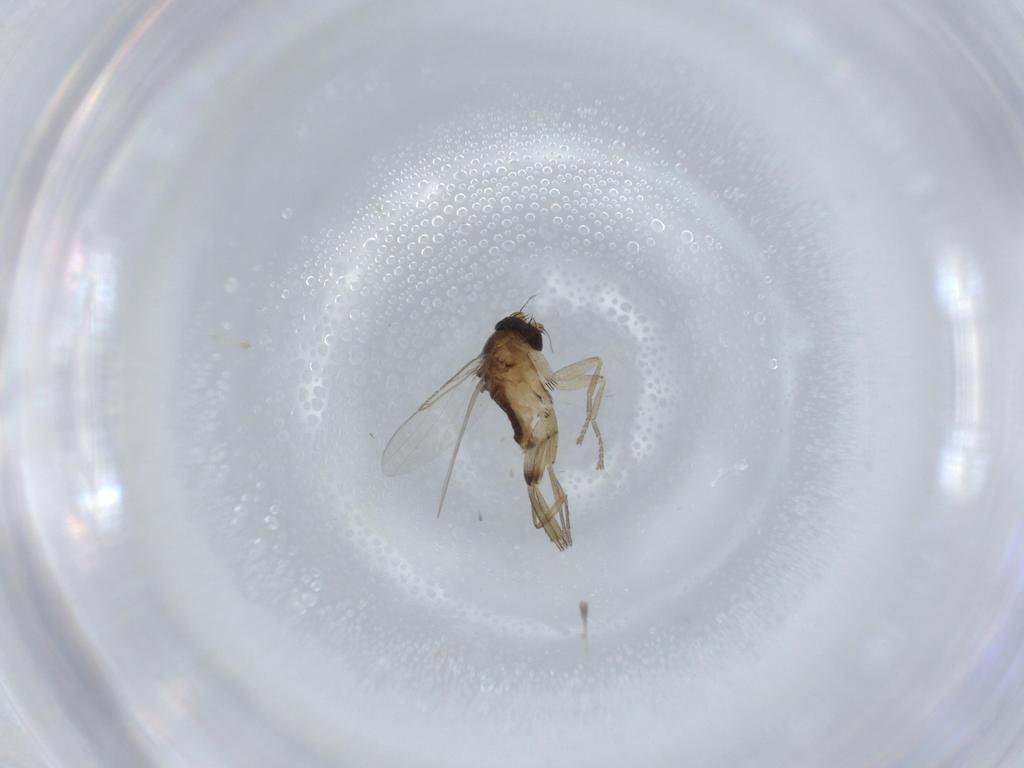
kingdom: Animalia
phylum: Arthropoda
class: Insecta
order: Diptera
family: Phoridae
